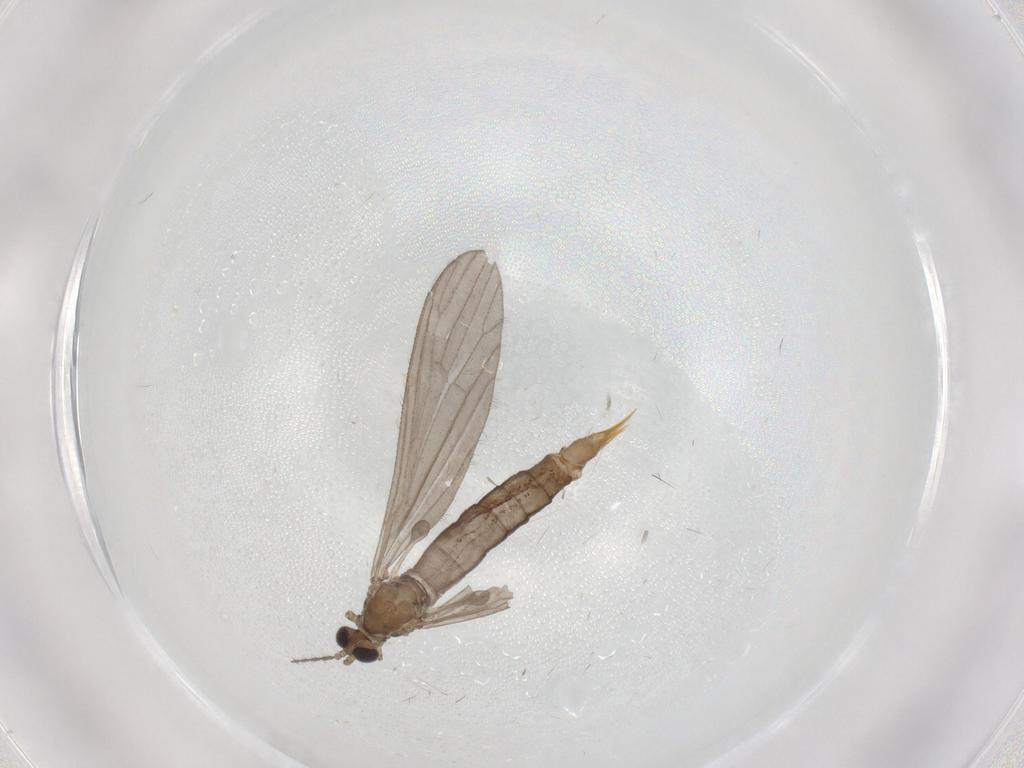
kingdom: Animalia
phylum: Arthropoda
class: Insecta
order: Diptera
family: Limoniidae
